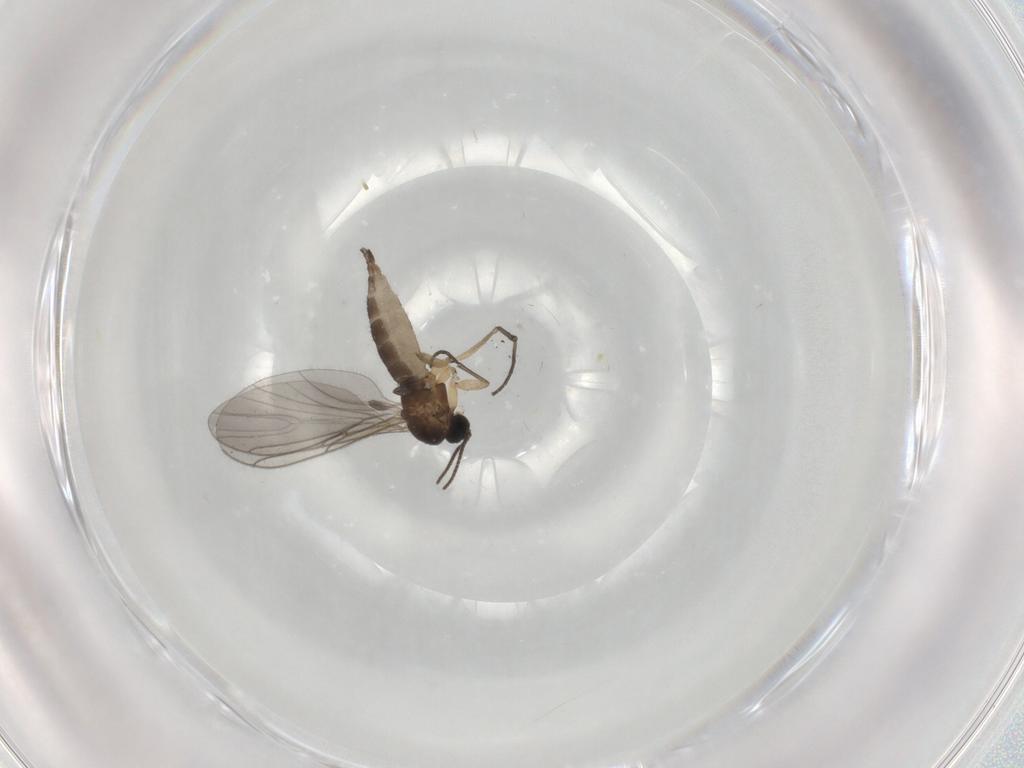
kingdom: Animalia
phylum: Arthropoda
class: Insecta
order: Diptera
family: Sciaridae
